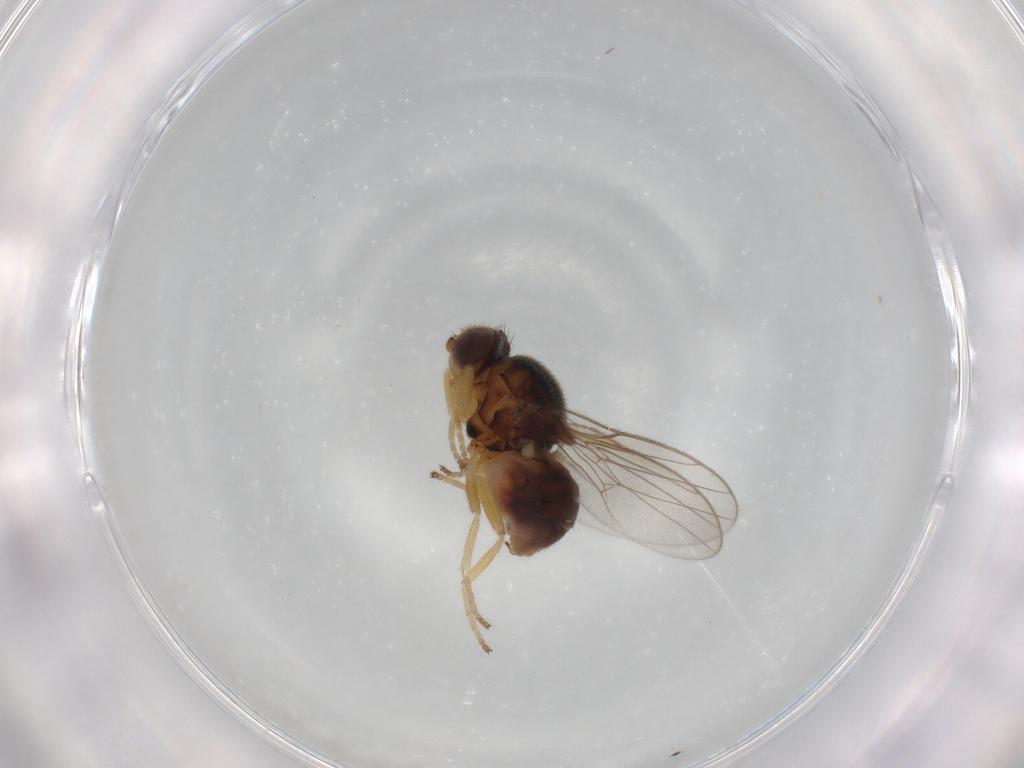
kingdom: Animalia
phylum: Arthropoda
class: Insecta
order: Diptera
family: Chloropidae
